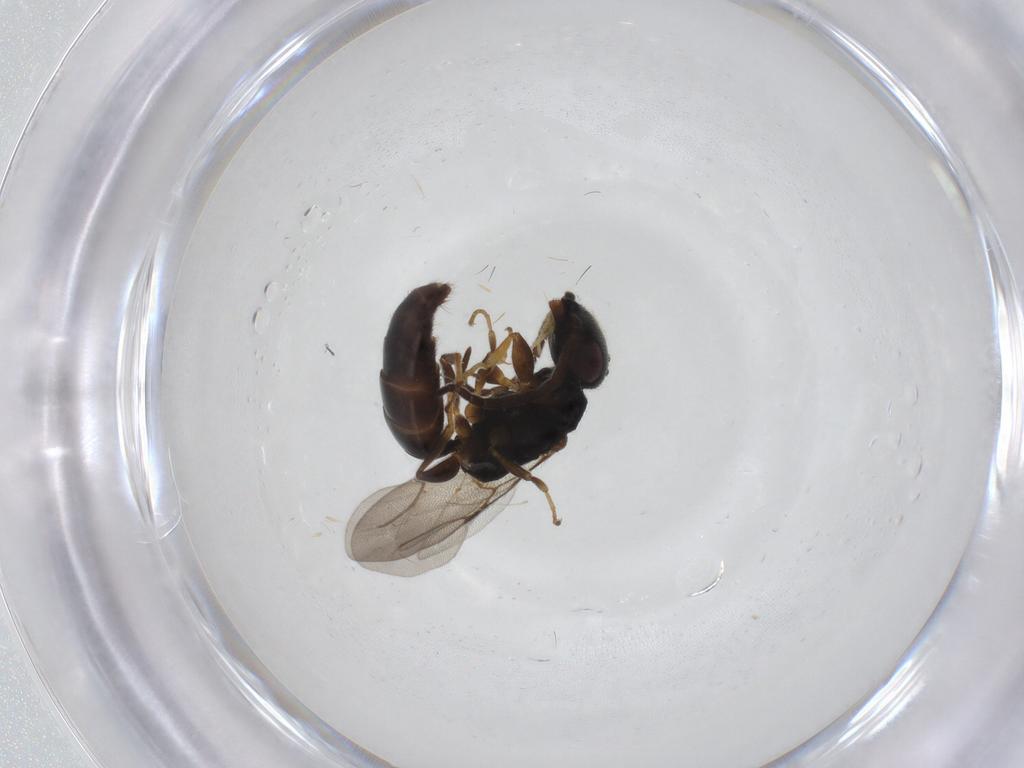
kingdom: Animalia
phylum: Arthropoda
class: Insecta
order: Hymenoptera
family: Bethylidae
